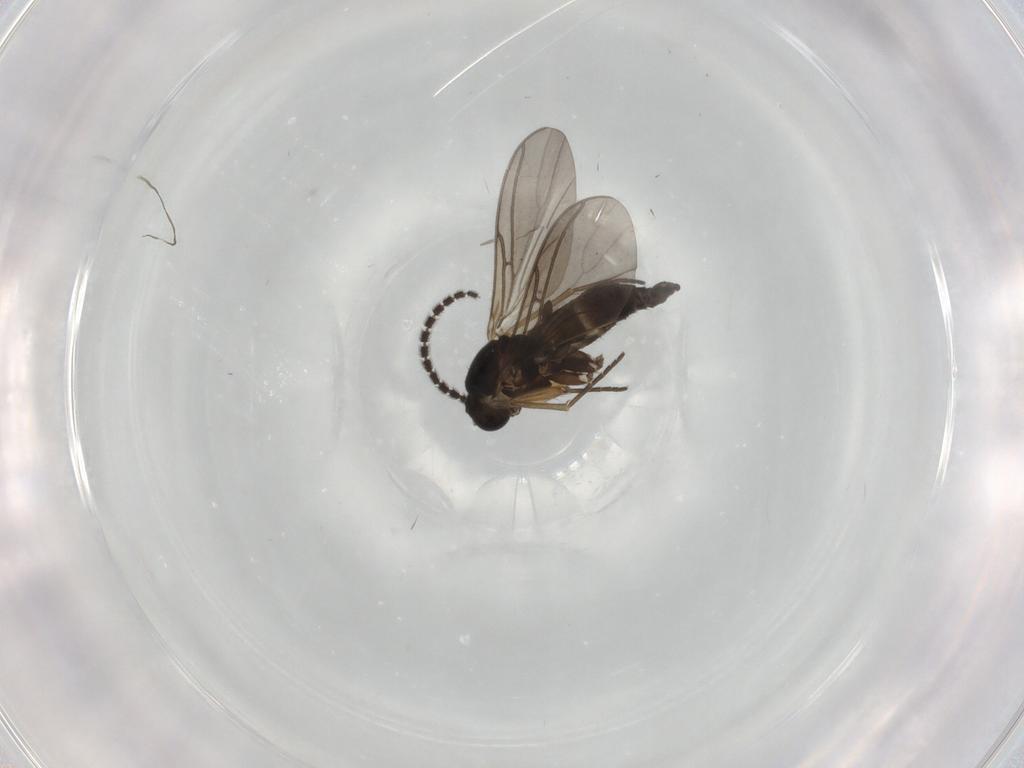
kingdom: Animalia
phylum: Arthropoda
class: Insecta
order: Diptera
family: Sciaridae
